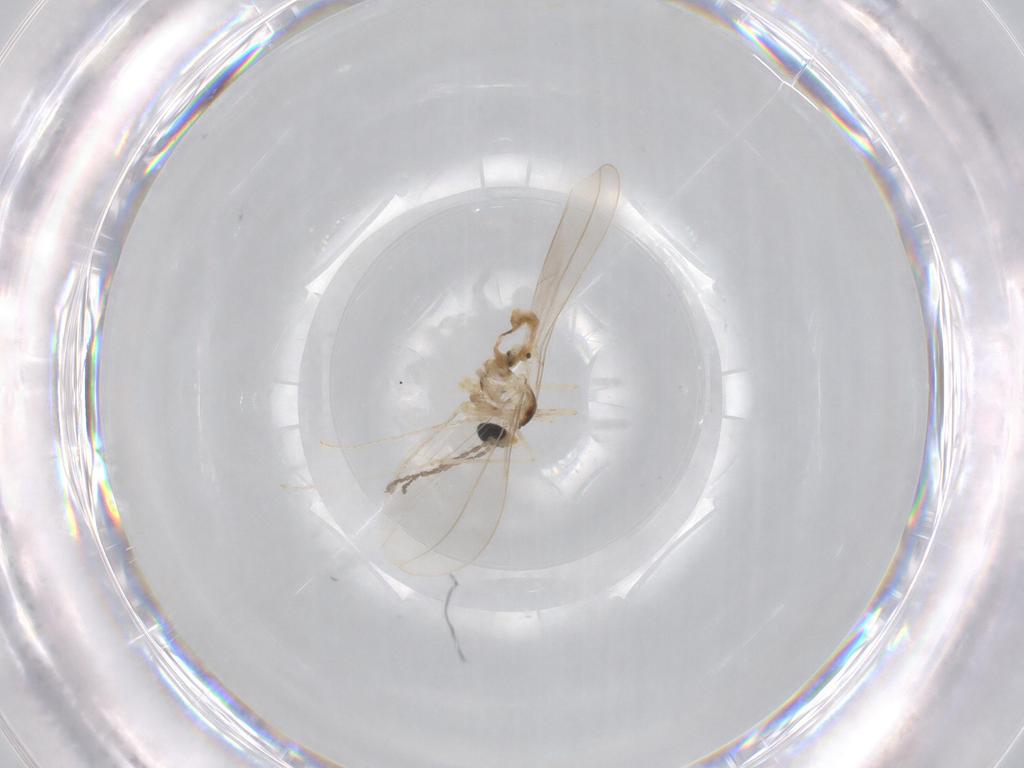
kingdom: Animalia
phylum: Arthropoda
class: Insecta
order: Diptera
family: Cecidomyiidae
